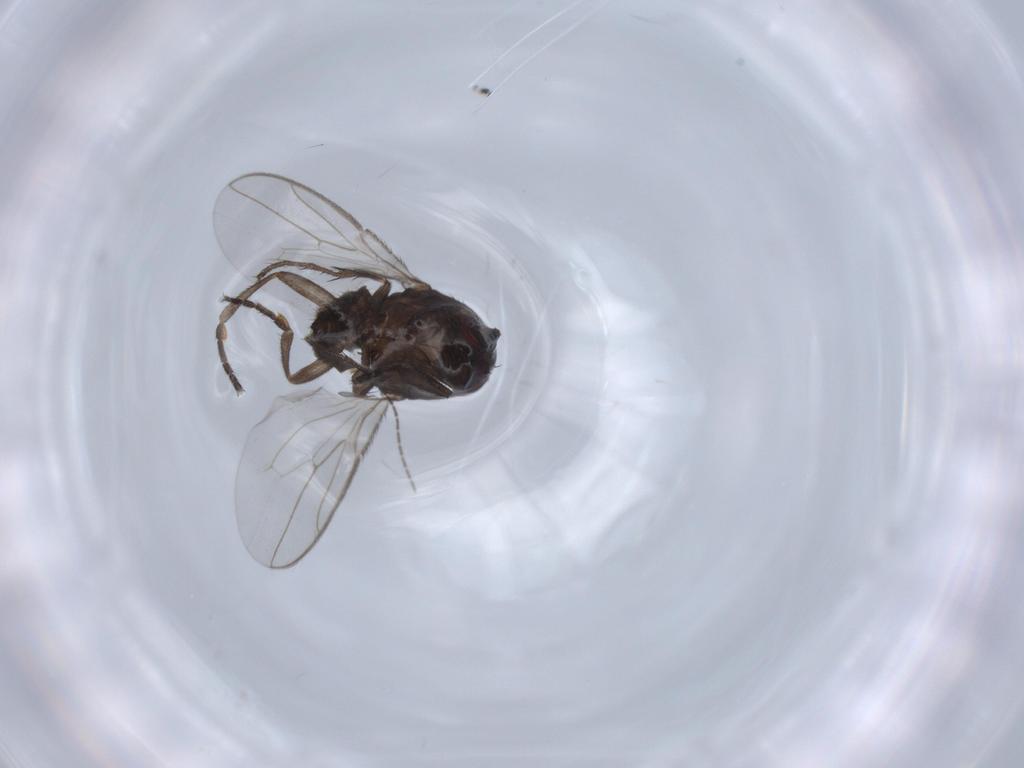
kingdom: Animalia
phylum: Arthropoda
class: Insecta
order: Diptera
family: Sphaeroceridae
